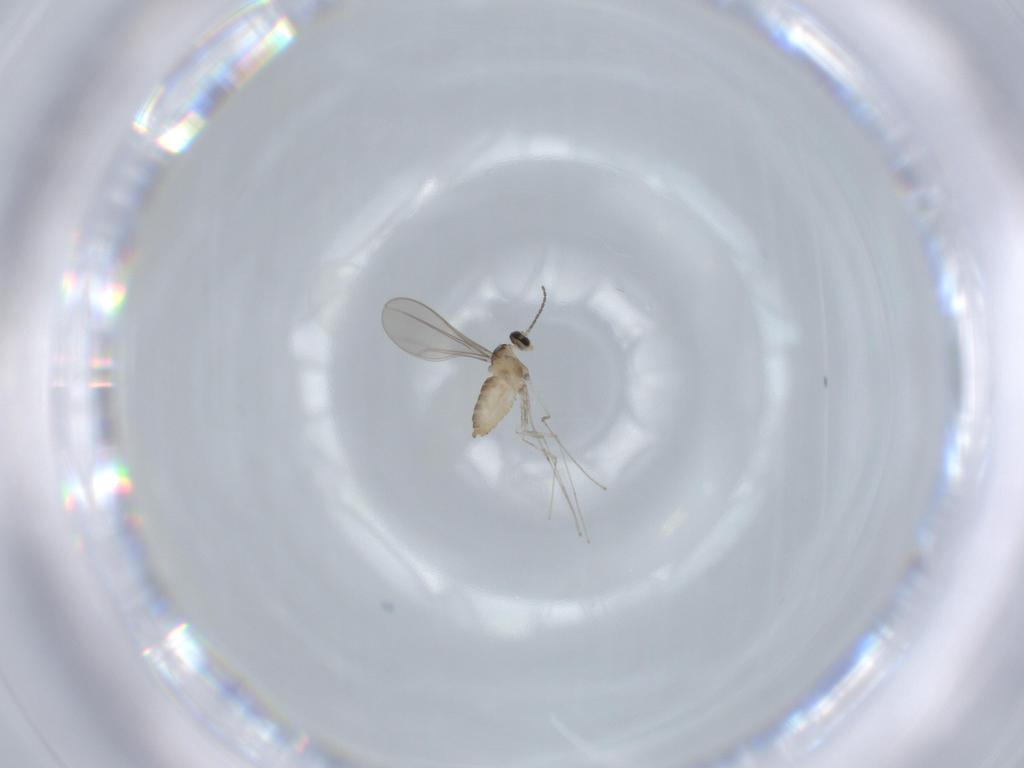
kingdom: Animalia
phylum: Arthropoda
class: Insecta
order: Diptera
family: Cecidomyiidae
